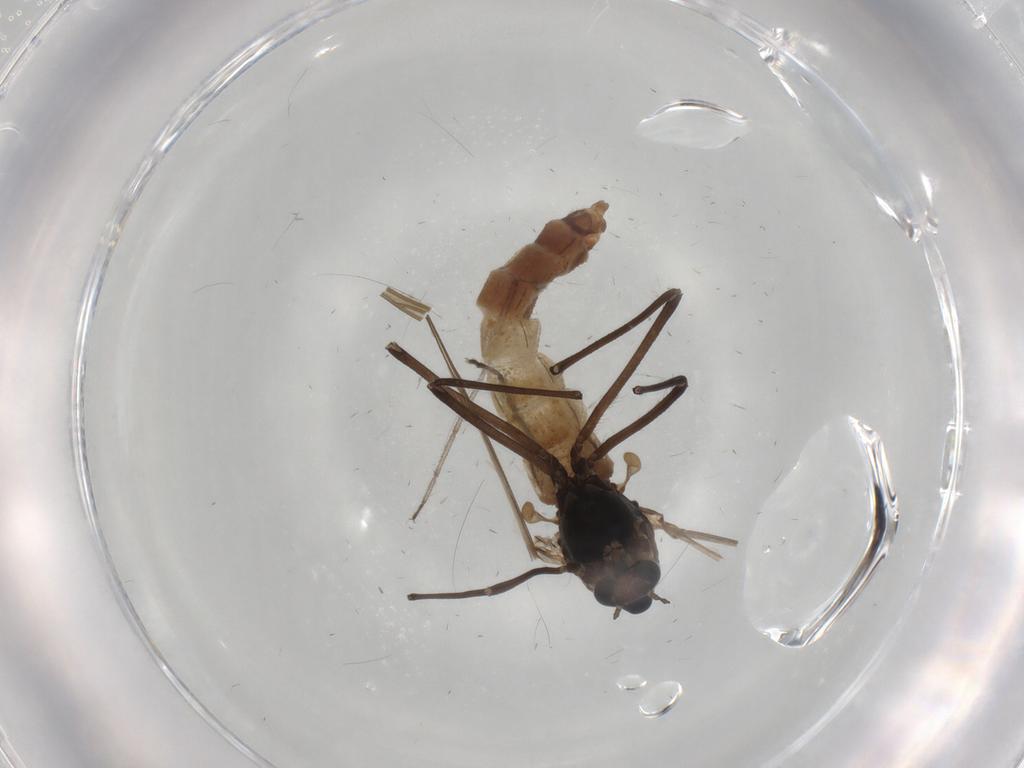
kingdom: Animalia
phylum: Arthropoda
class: Insecta
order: Diptera
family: Chironomidae
